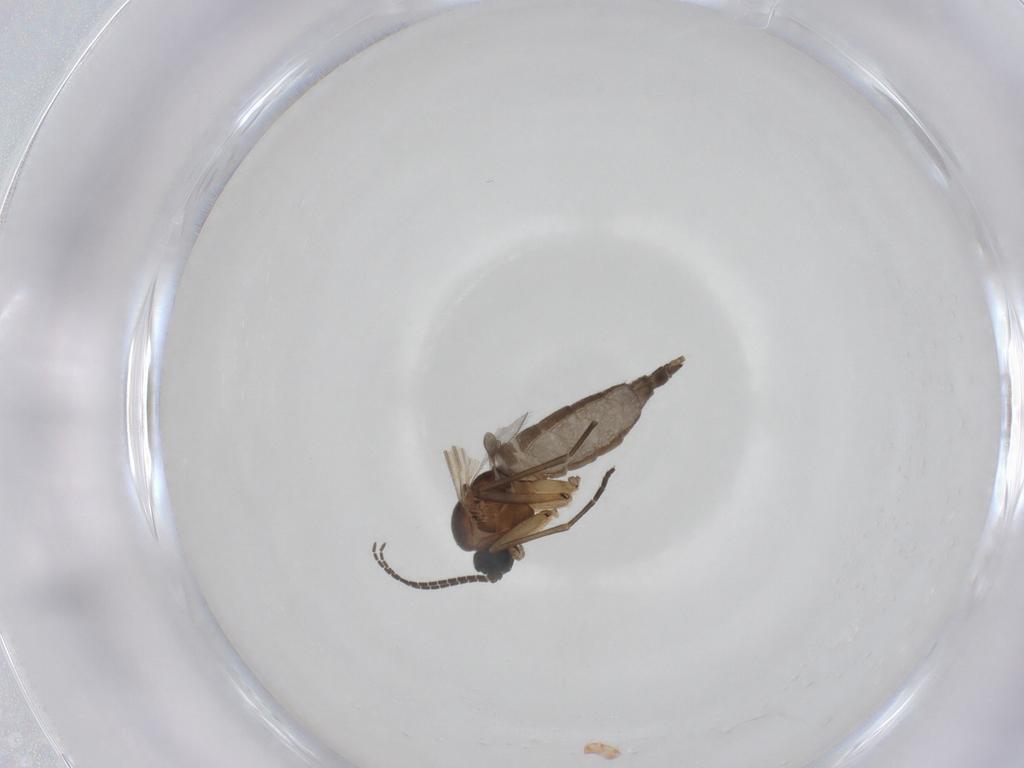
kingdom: Animalia
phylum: Arthropoda
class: Insecta
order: Diptera
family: Sciaridae
